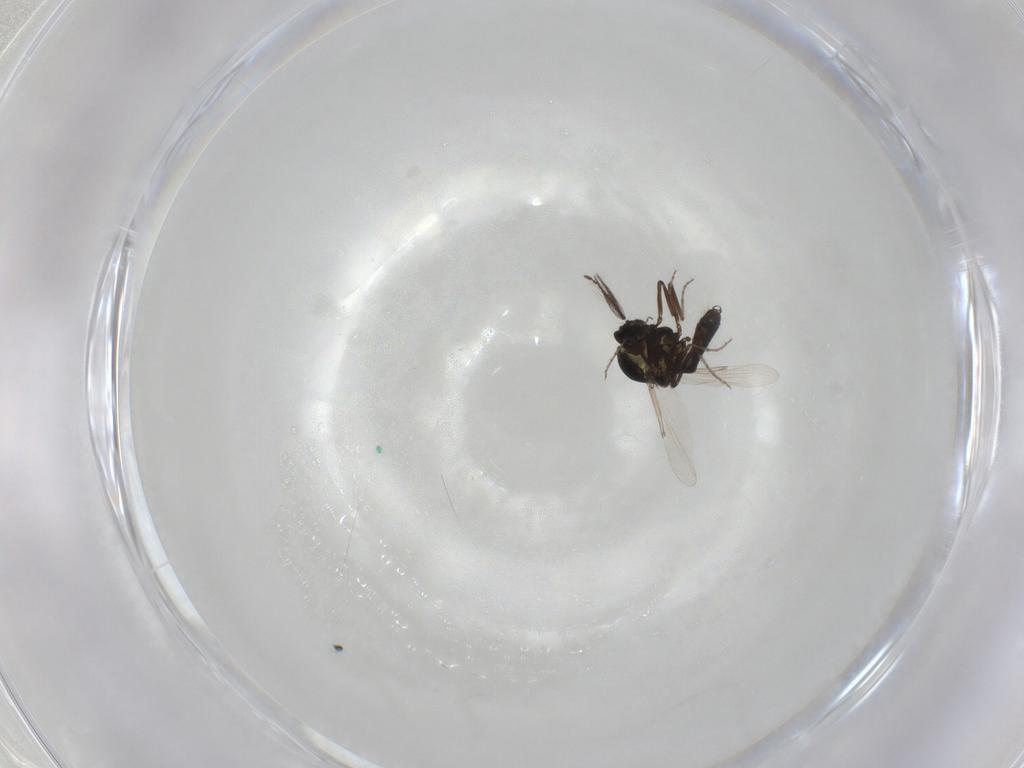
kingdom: Animalia
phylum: Arthropoda
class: Insecta
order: Diptera
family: Ceratopogonidae
